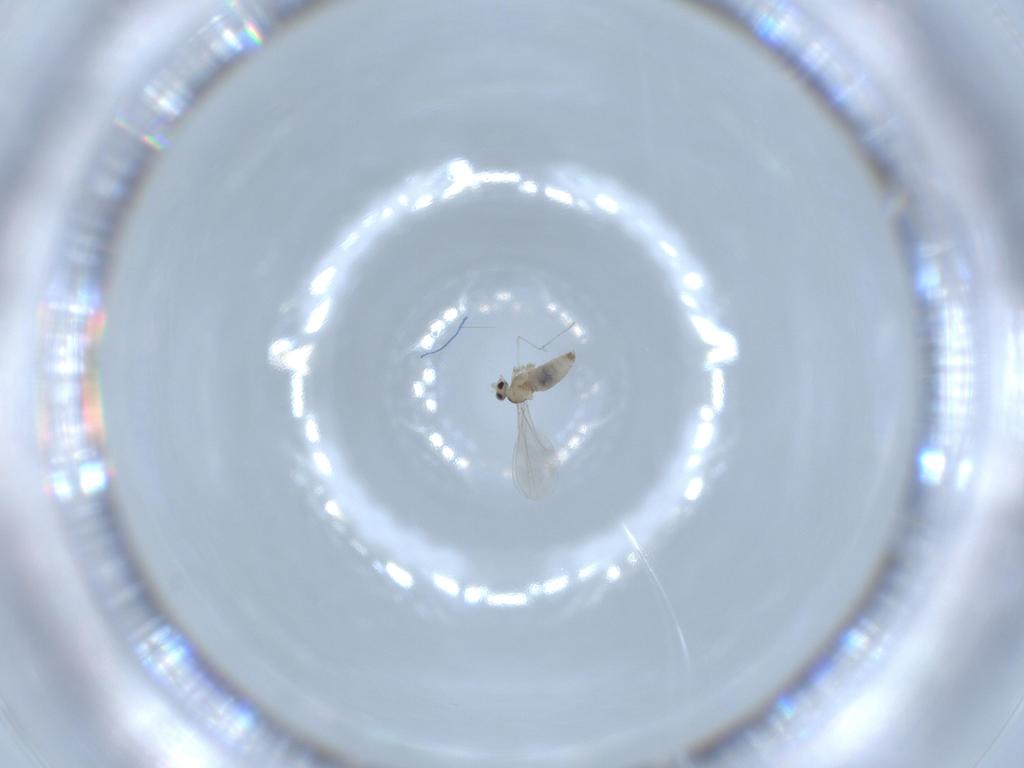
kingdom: Animalia
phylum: Arthropoda
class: Insecta
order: Diptera
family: Cecidomyiidae
